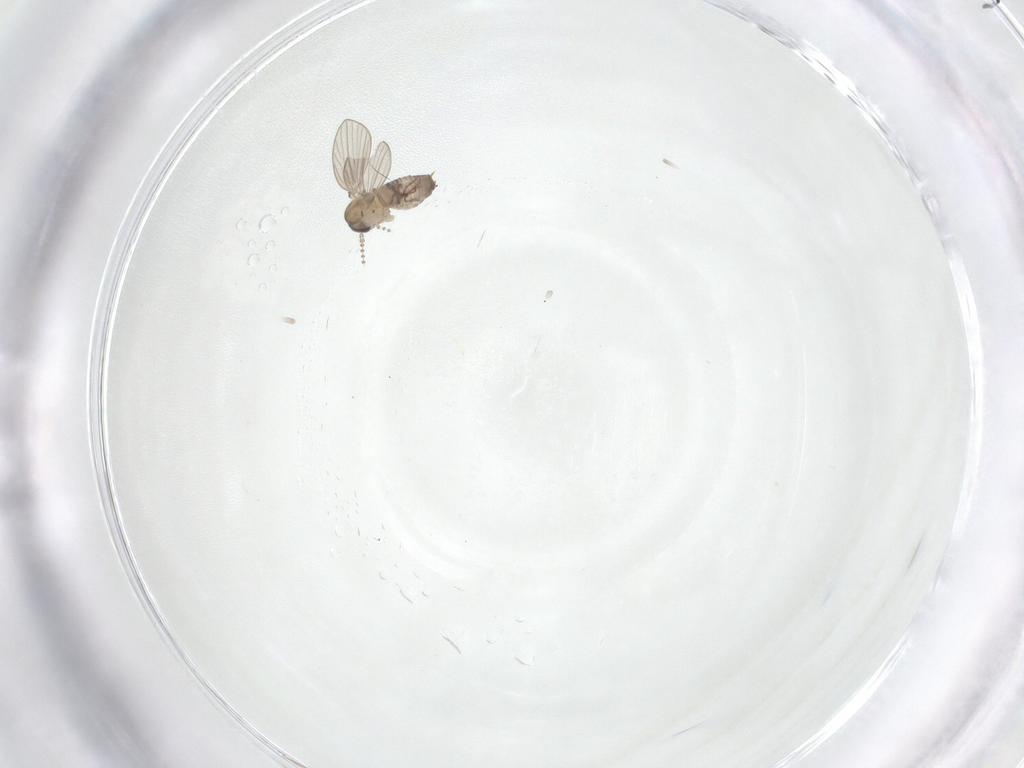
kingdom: Animalia
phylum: Arthropoda
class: Insecta
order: Diptera
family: Psychodidae
